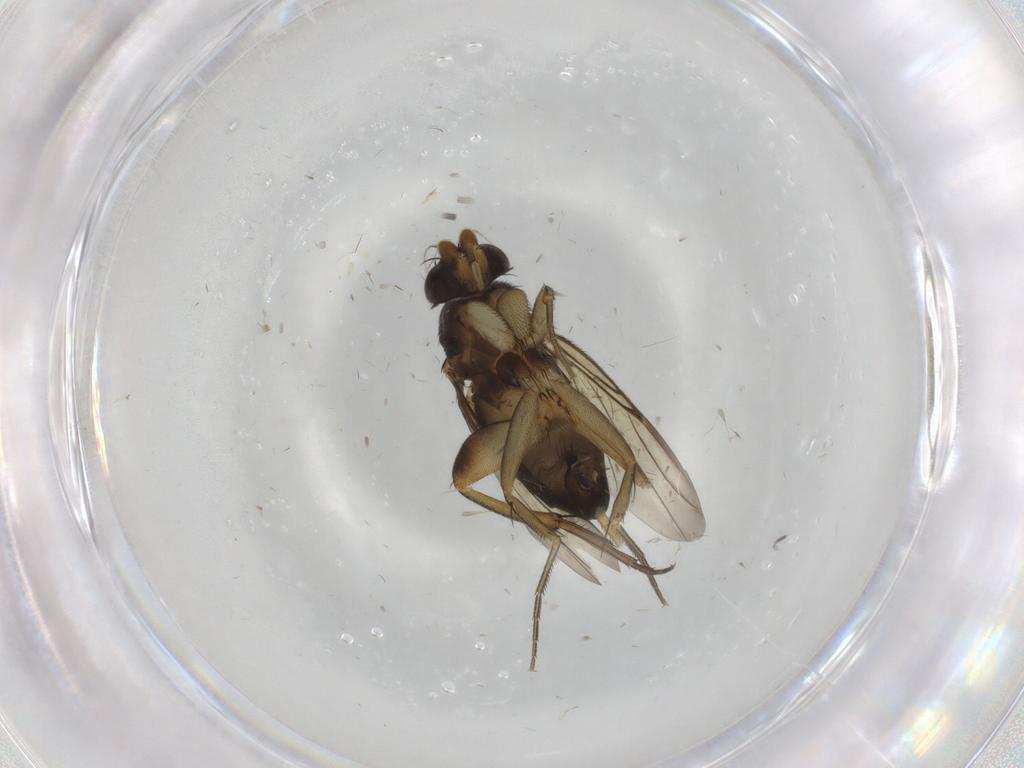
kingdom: Animalia
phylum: Arthropoda
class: Insecta
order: Diptera
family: Phoridae
